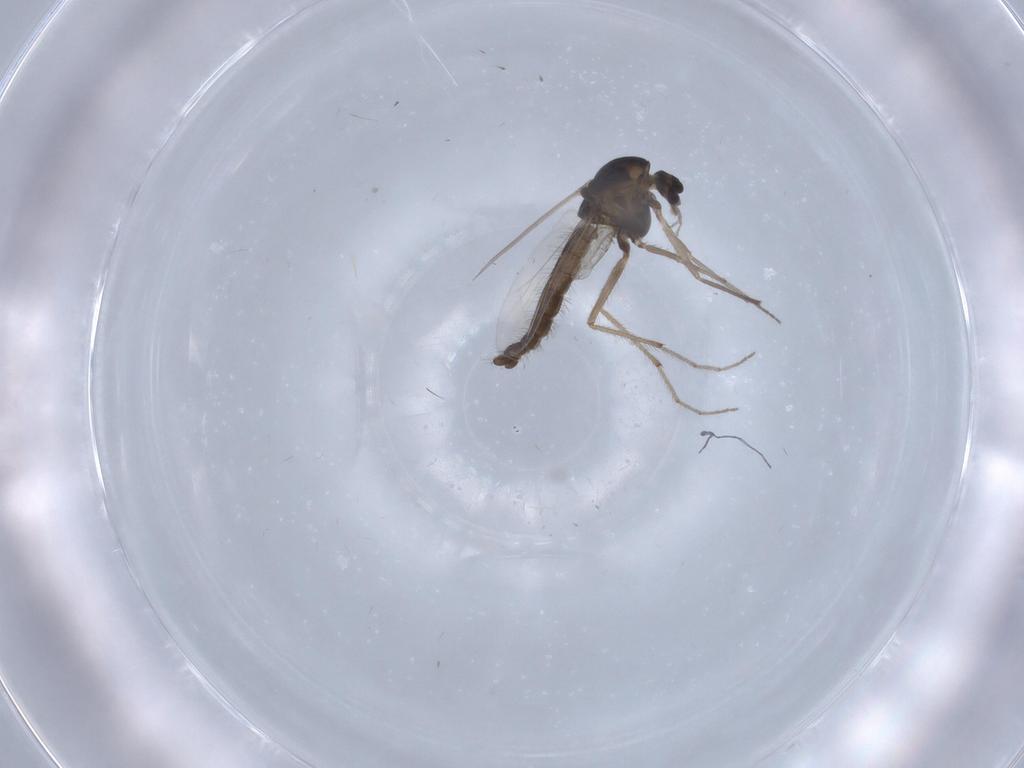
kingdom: Animalia
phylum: Arthropoda
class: Insecta
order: Diptera
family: Chironomidae
